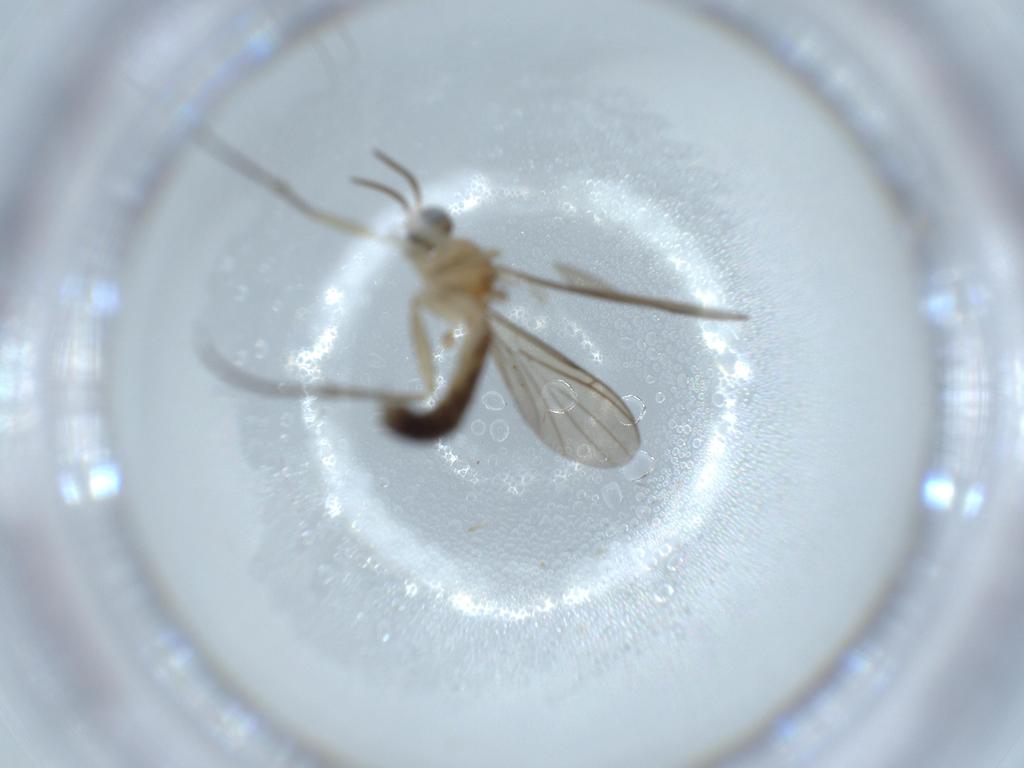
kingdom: Animalia
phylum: Arthropoda
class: Insecta
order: Diptera
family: Keroplatidae
